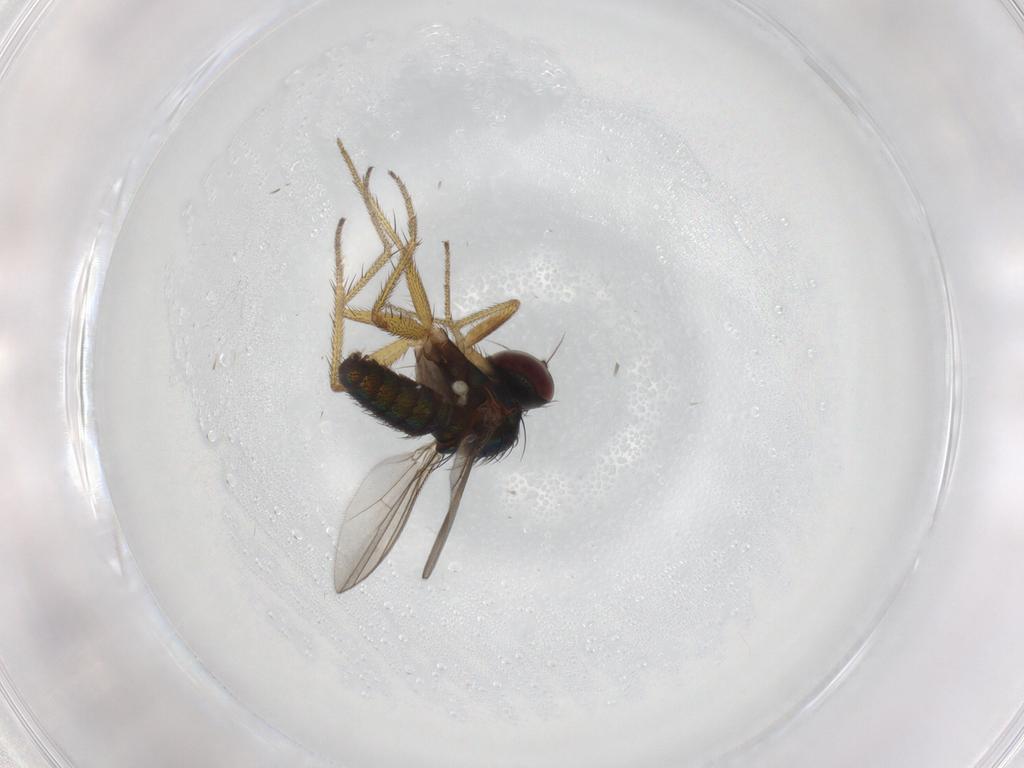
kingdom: Animalia
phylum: Arthropoda
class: Insecta
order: Diptera
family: Dolichopodidae
